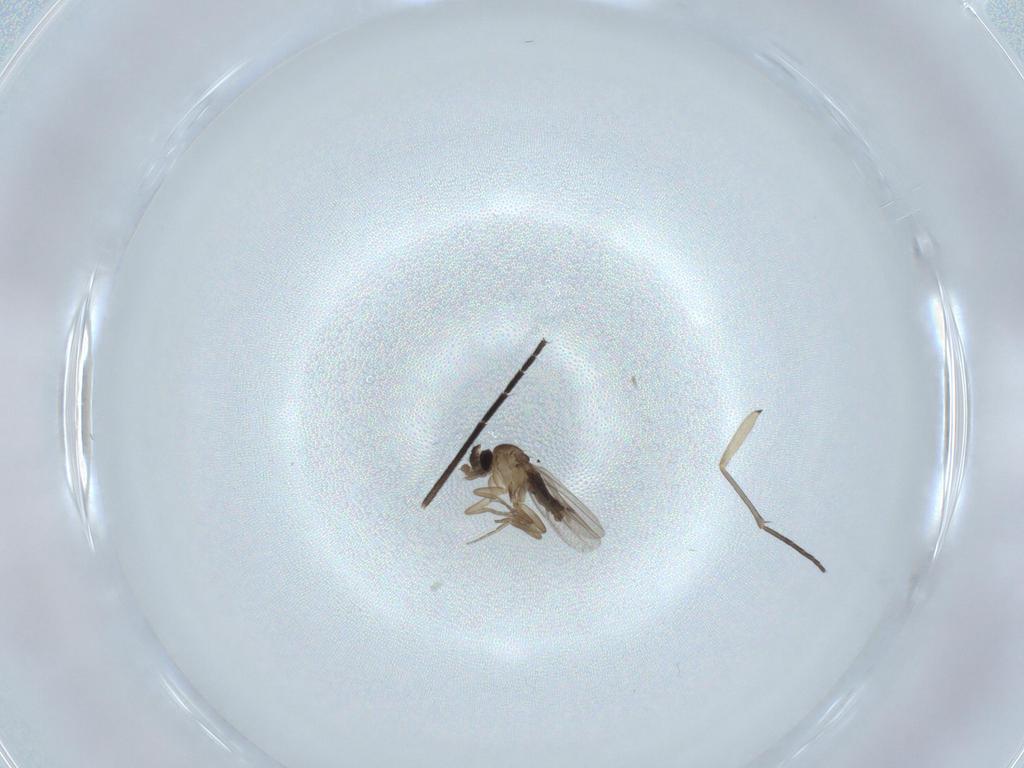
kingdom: Animalia
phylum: Arthropoda
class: Insecta
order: Diptera
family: Phoridae
